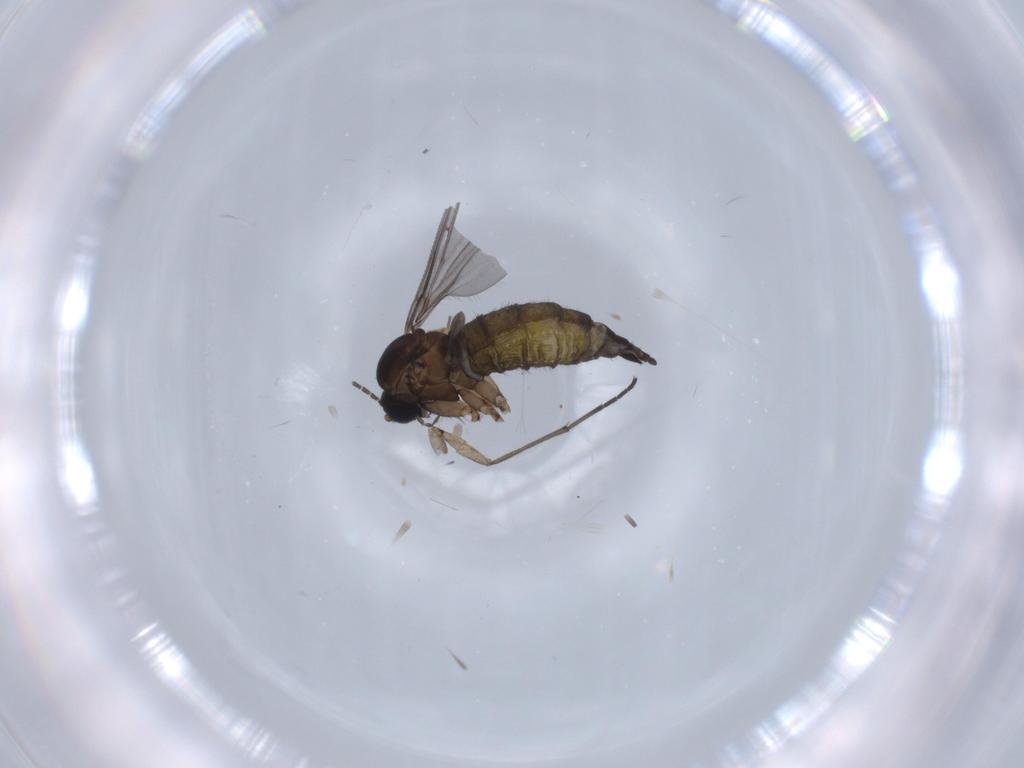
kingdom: Animalia
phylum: Arthropoda
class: Insecta
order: Diptera
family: Sciaridae
